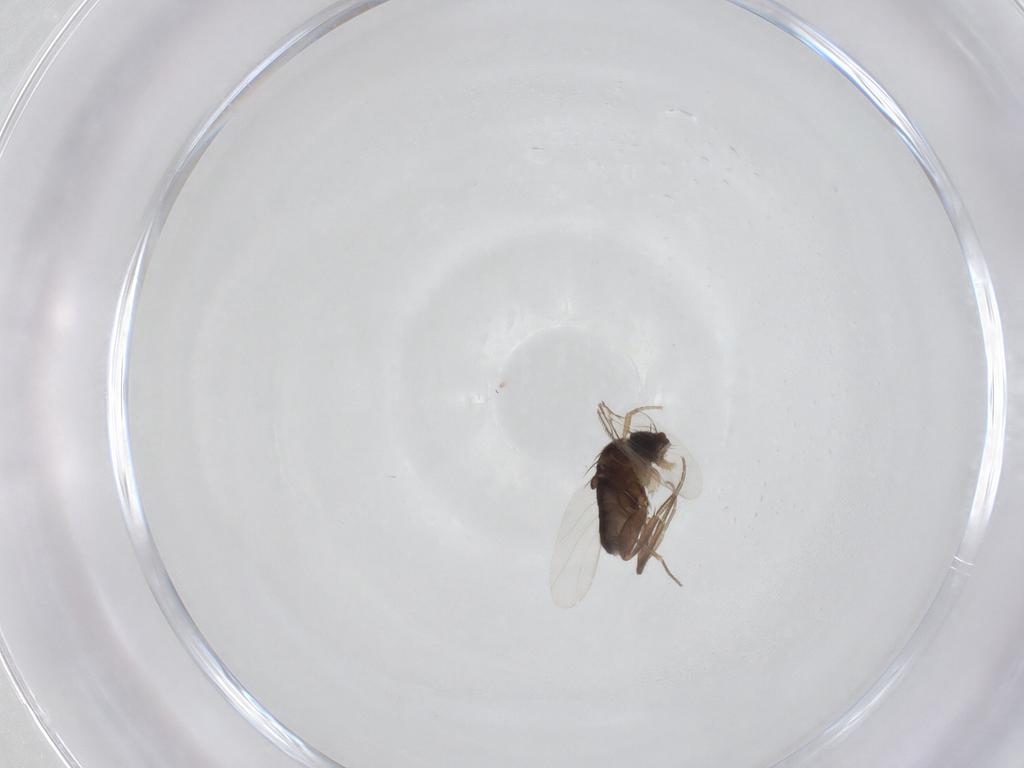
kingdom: Animalia
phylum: Arthropoda
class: Insecta
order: Diptera
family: Phoridae
